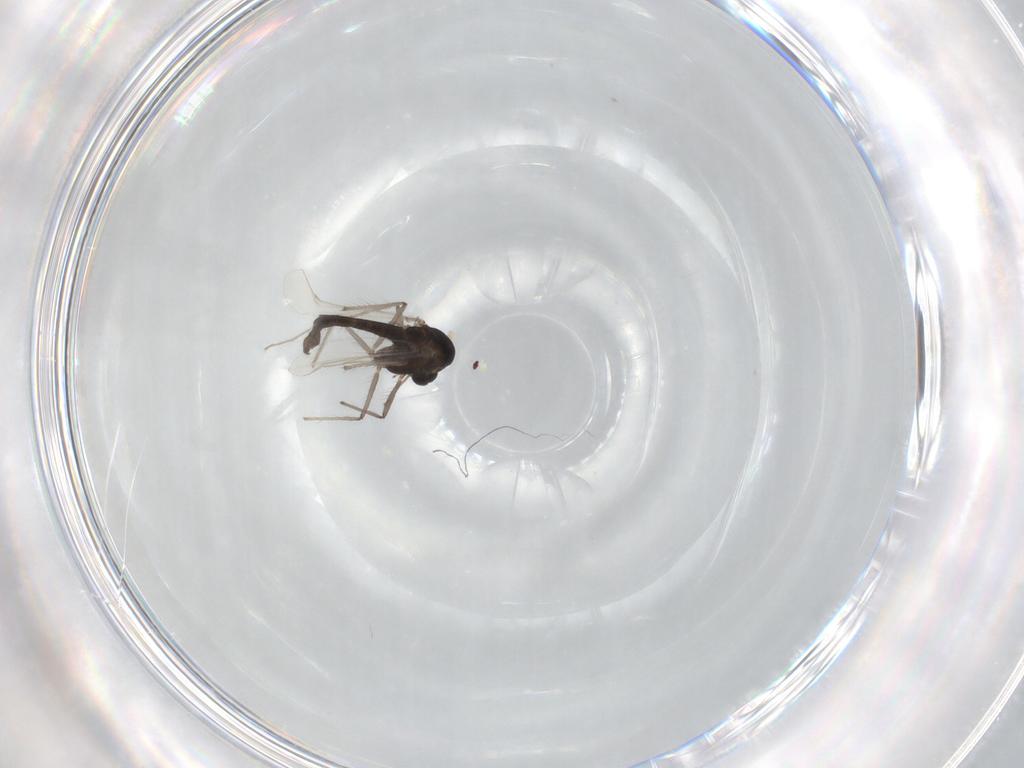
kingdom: Animalia
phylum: Arthropoda
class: Insecta
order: Diptera
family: Chironomidae
